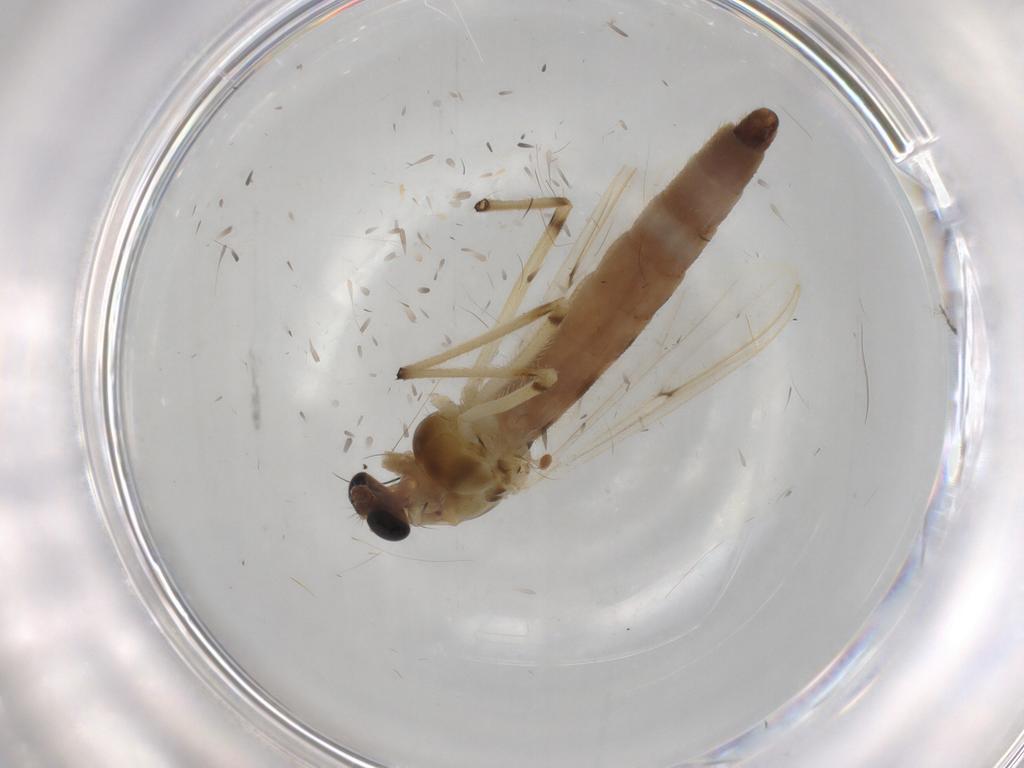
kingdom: Animalia
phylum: Arthropoda
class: Insecta
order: Diptera
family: Chironomidae
